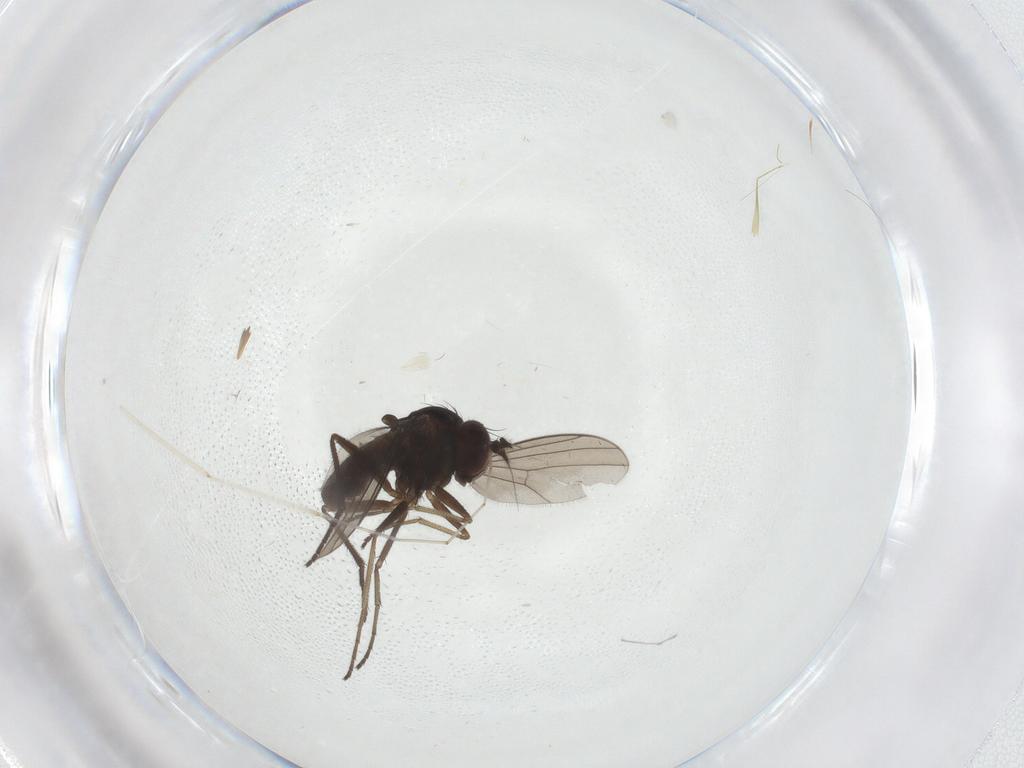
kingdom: Animalia
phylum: Arthropoda
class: Insecta
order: Diptera
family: Dolichopodidae
